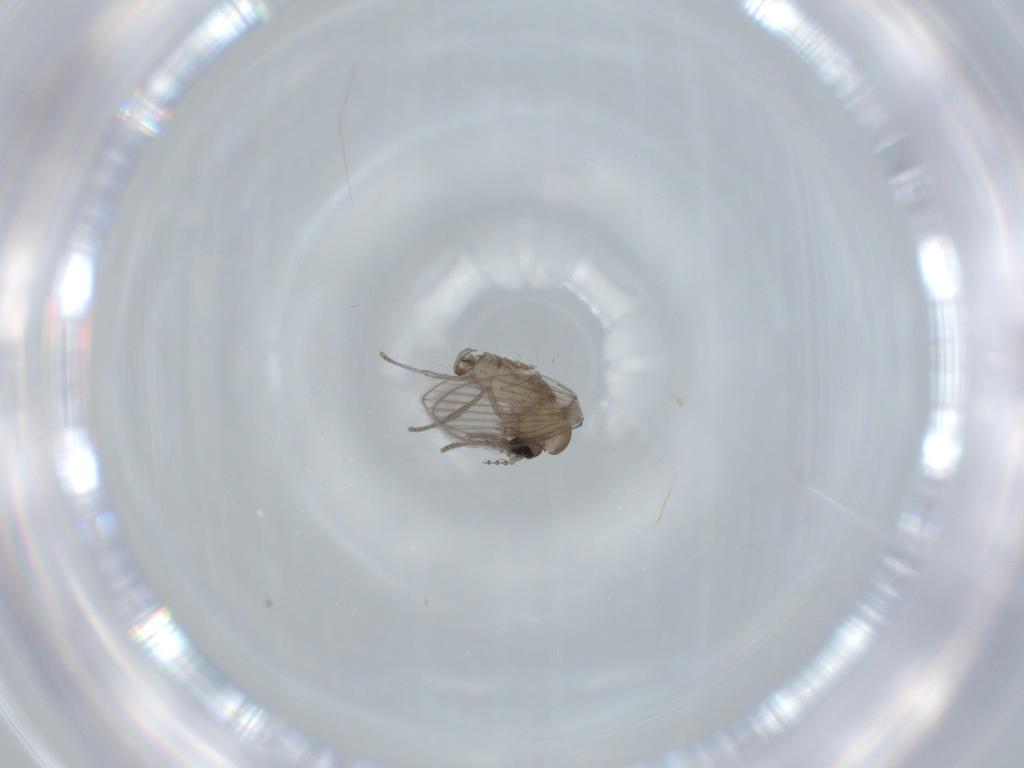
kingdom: Animalia
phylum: Arthropoda
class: Insecta
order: Diptera
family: Psychodidae
